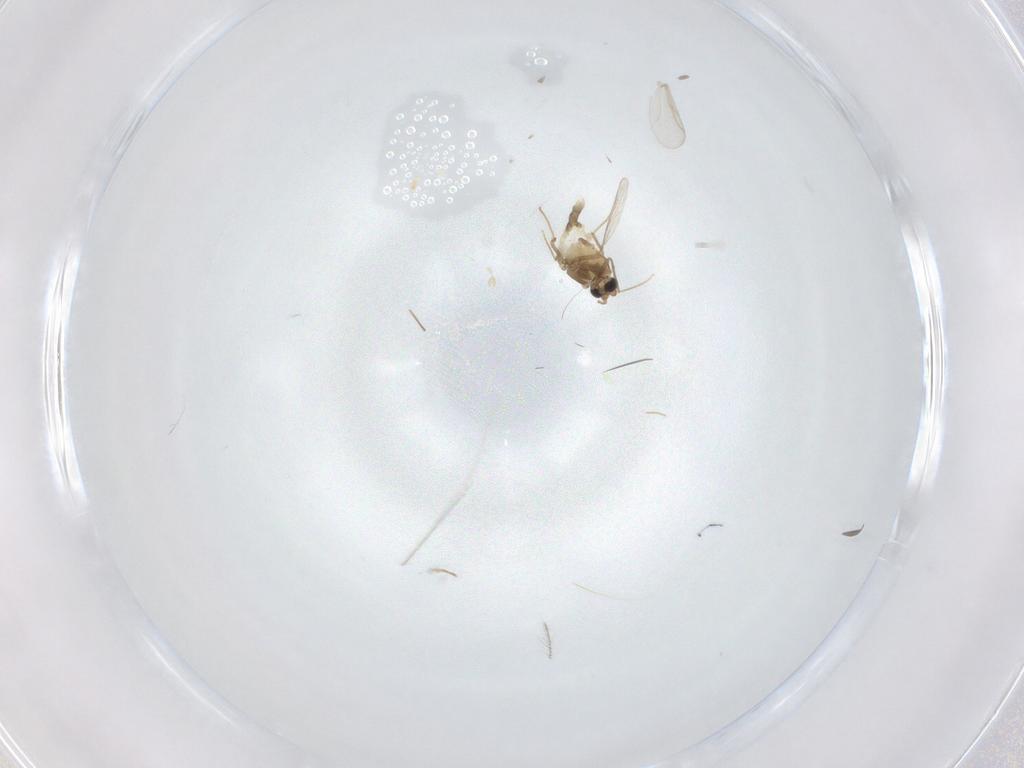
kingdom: Animalia
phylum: Arthropoda
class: Insecta
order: Diptera
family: Chironomidae
